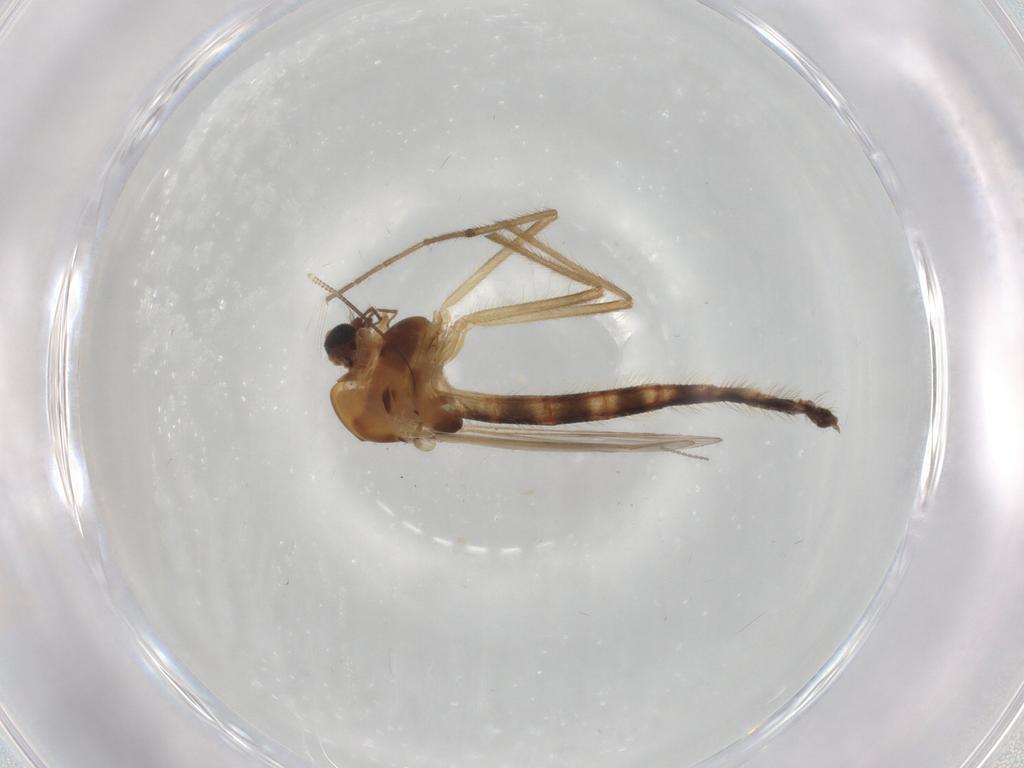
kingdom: Animalia
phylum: Arthropoda
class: Insecta
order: Diptera
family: Chironomidae
